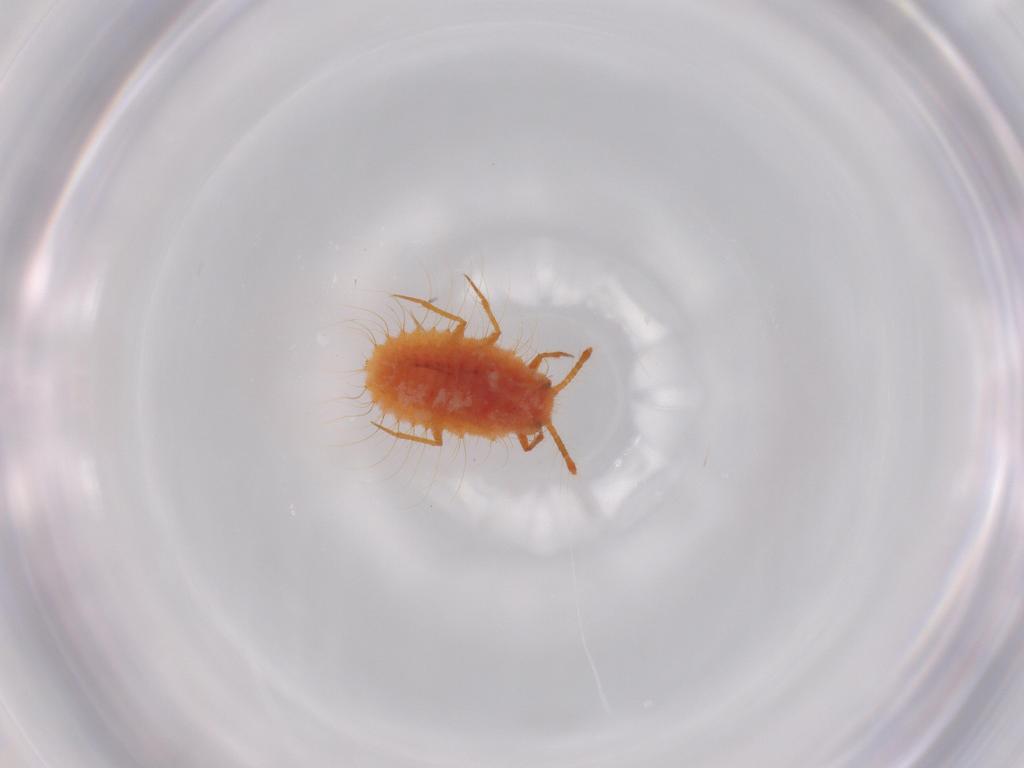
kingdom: Animalia
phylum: Arthropoda
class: Insecta
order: Hemiptera
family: Coccoidea_incertae_sedis
